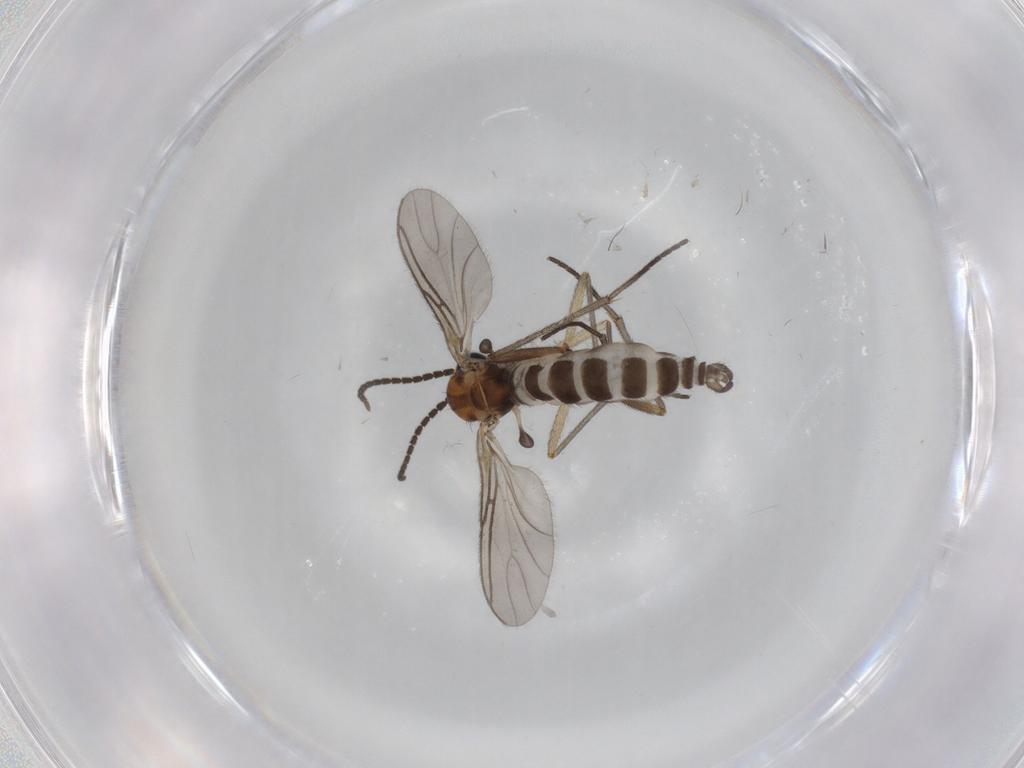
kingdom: Animalia
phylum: Arthropoda
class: Insecta
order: Diptera
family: Sciaridae
